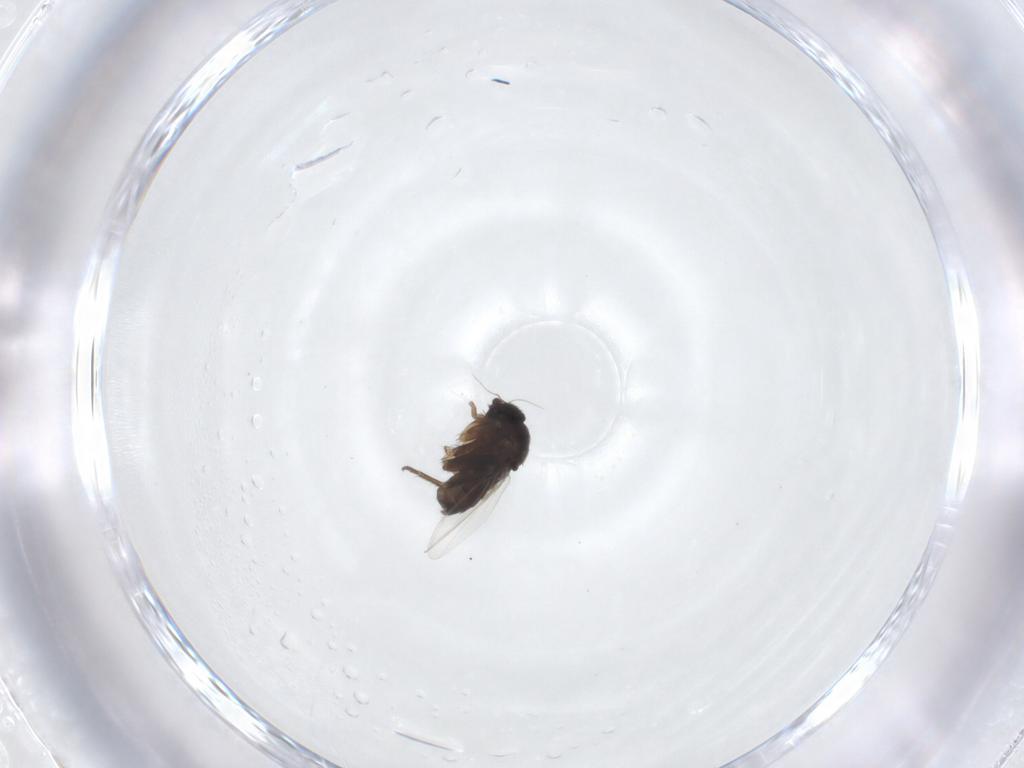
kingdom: Animalia
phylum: Arthropoda
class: Insecta
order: Diptera
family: Phoridae
